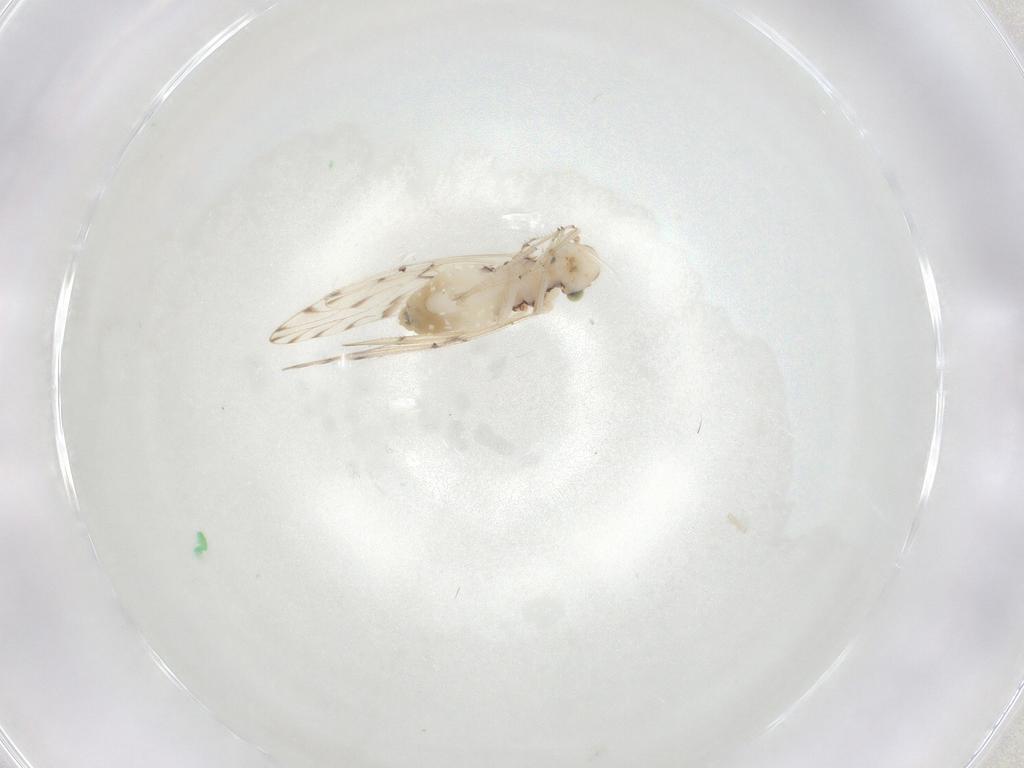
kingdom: Animalia
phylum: Arthropoda
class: Insecta
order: Psocodea
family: Trichopsocidae
